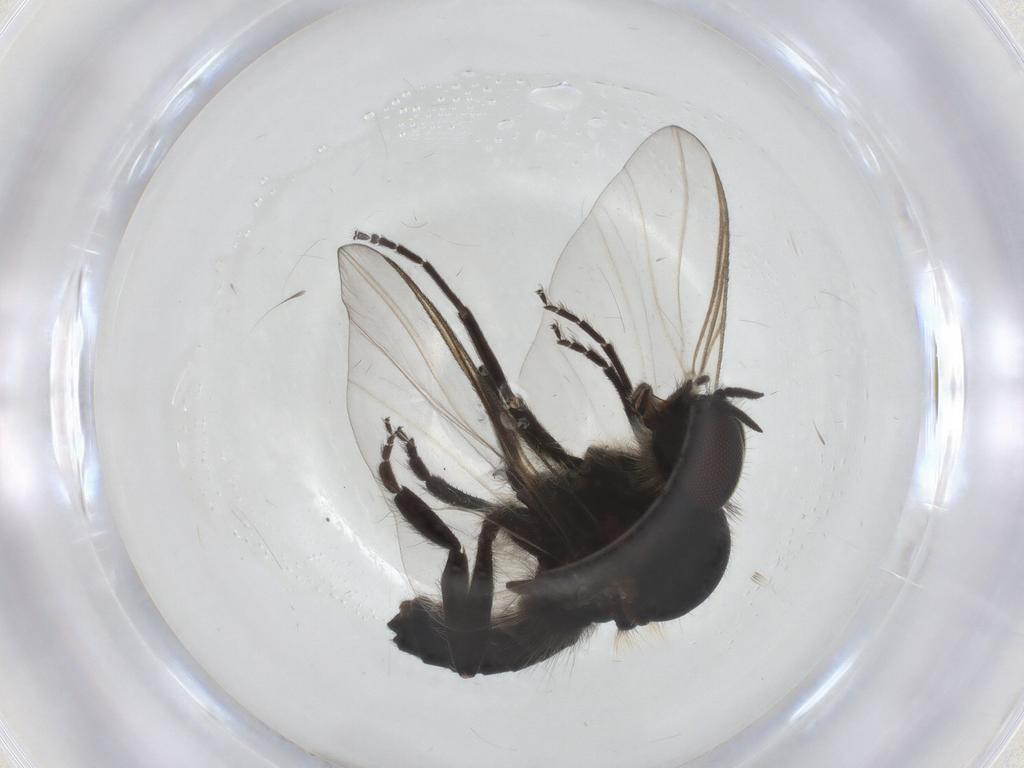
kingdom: Animalia
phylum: Arthropoda
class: Insecta
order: Diptera
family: Simuliidae
